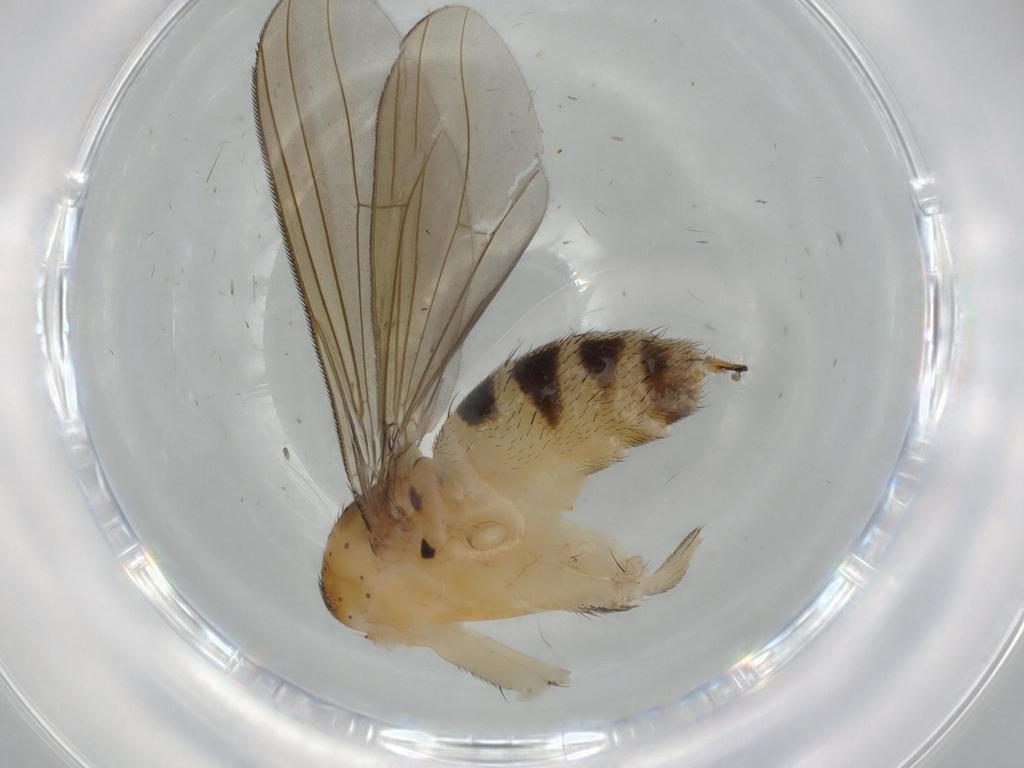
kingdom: Animalia
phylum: Arthropoda
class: Insecta
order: Diptera
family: Dolichopodidae
